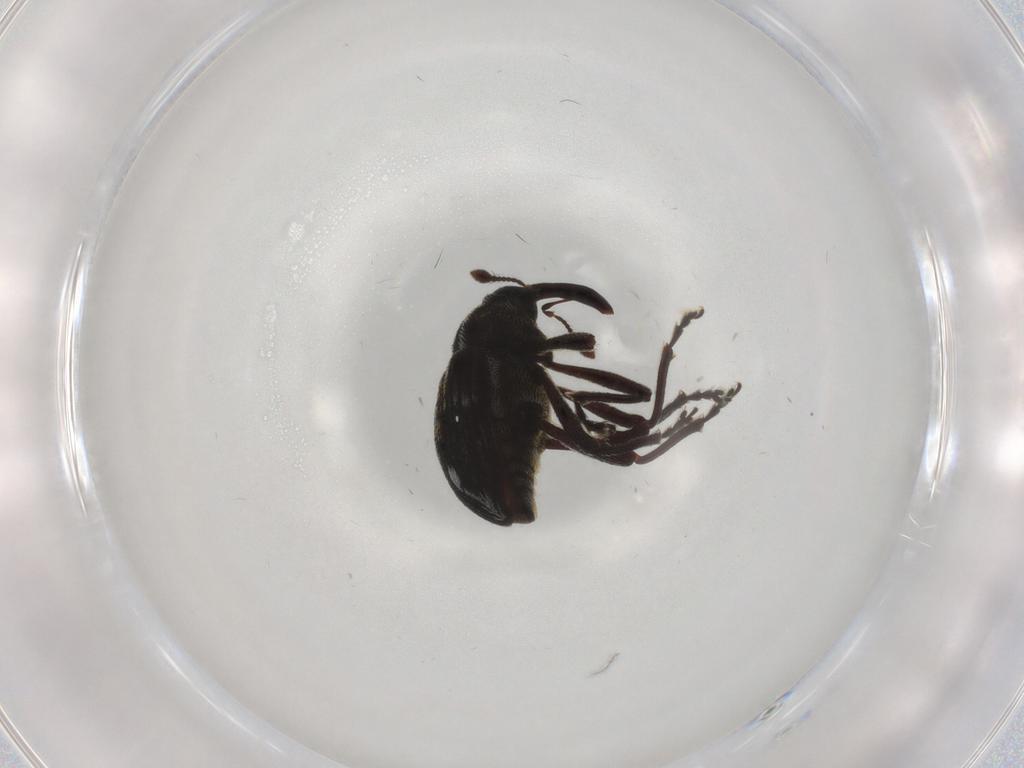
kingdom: Animalia
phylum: Arthropoda
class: Insecta
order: Coleoptera
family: Curculionidae
